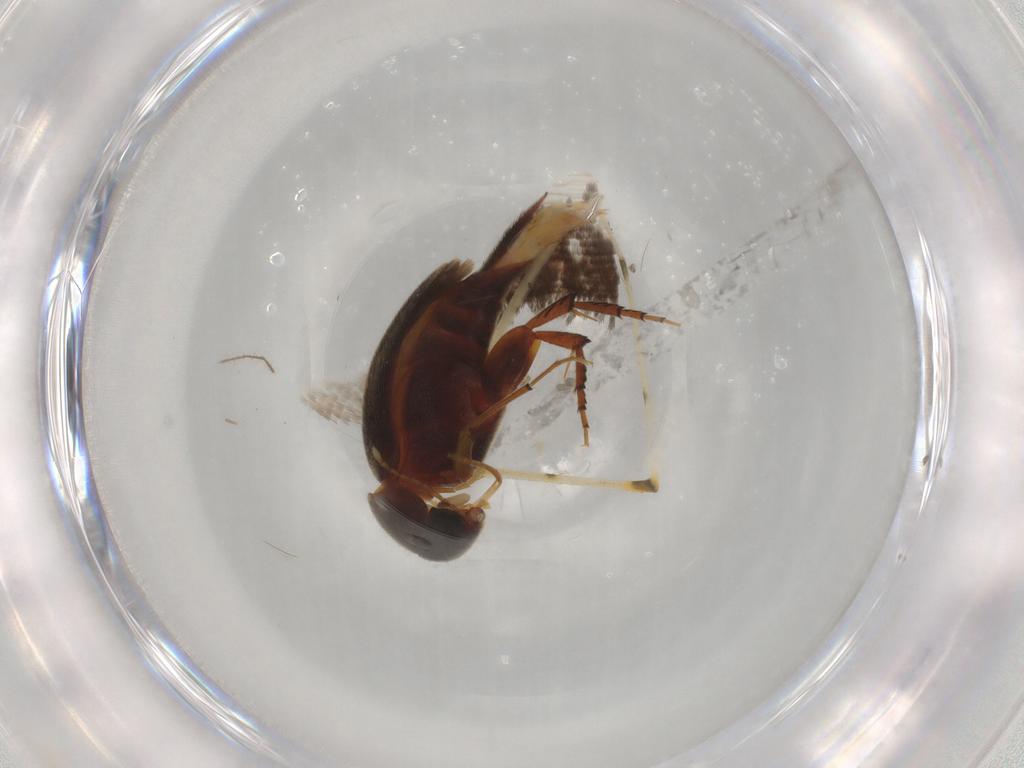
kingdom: Animalia
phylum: Arthropoda
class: Insecta
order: Coleoptera
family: Mordellidae
